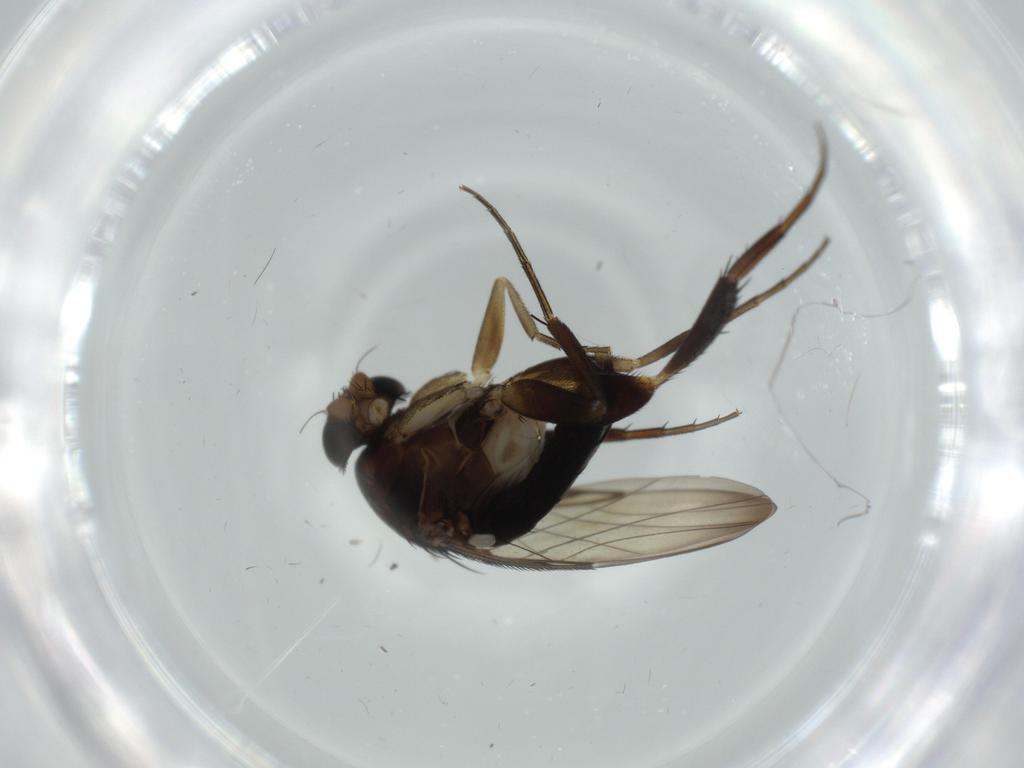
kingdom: Animalia
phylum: Arthropoda
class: Insecta
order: Diptera
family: Phoridae
